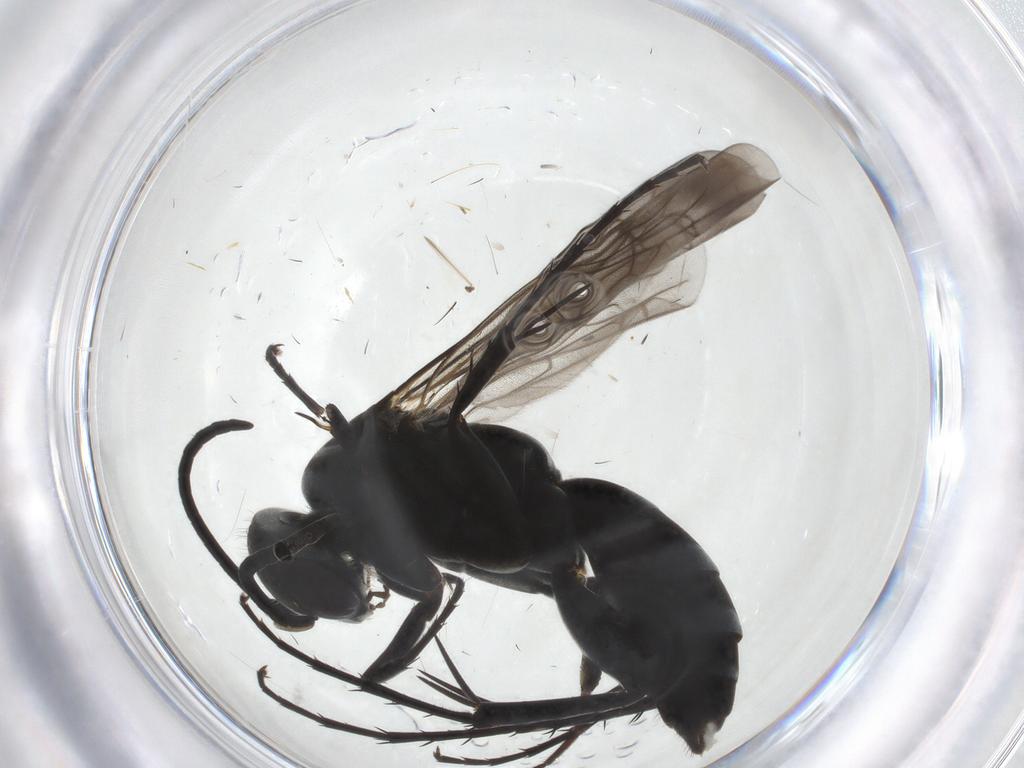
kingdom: Animalia
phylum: Arthropoda
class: Insecta
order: Hymenoptera
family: Pompilidae
